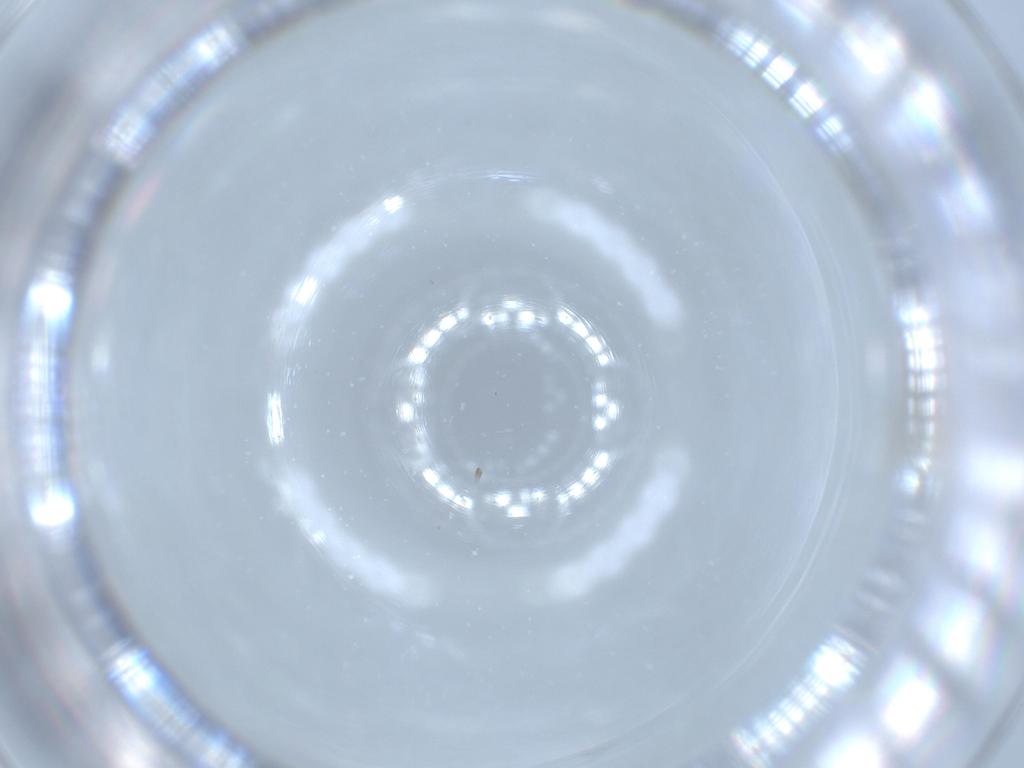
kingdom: Animalia
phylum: Arthropoda
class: Insecta
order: Diptera
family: Cecidomyiidae
